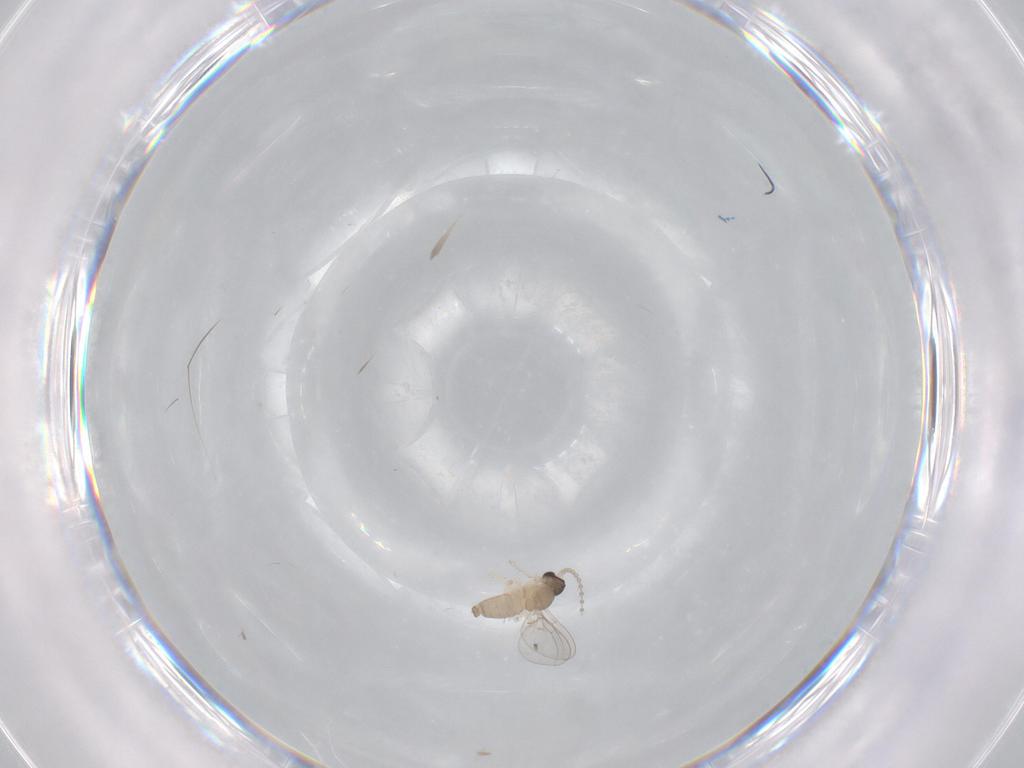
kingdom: Animalia
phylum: Arthropoda
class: Insecta
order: Diptera
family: Cecidomyiidae
